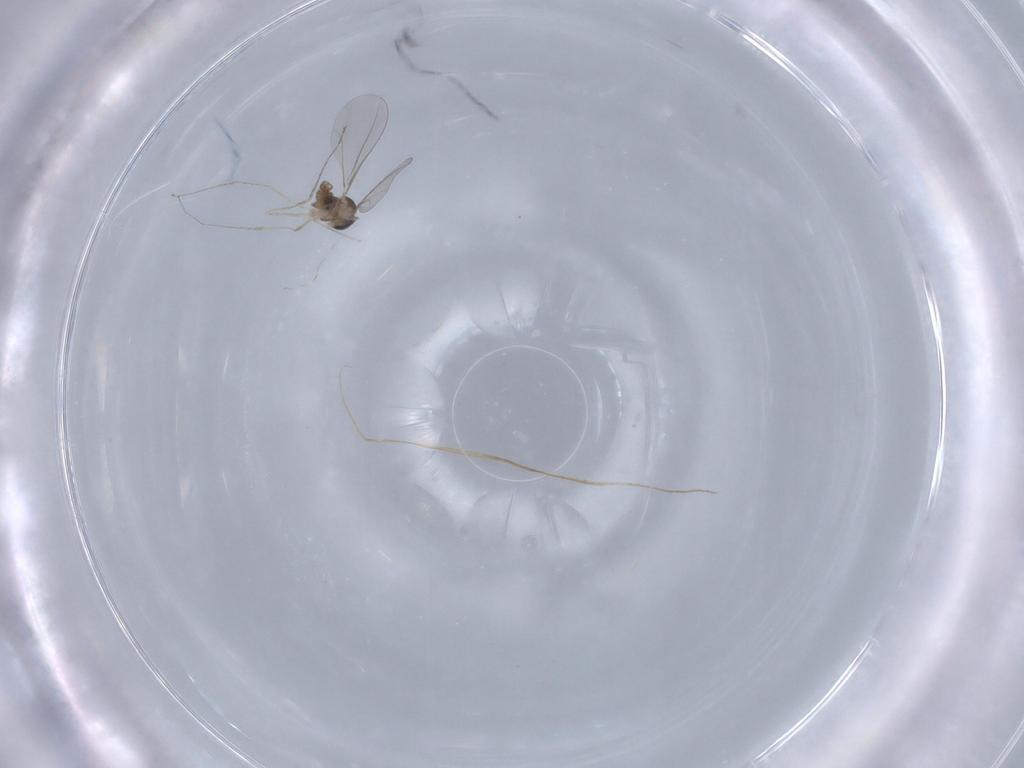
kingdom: Animalia
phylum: Arthropoda
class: Insecta
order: Diptera
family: Cecidomyiidae
